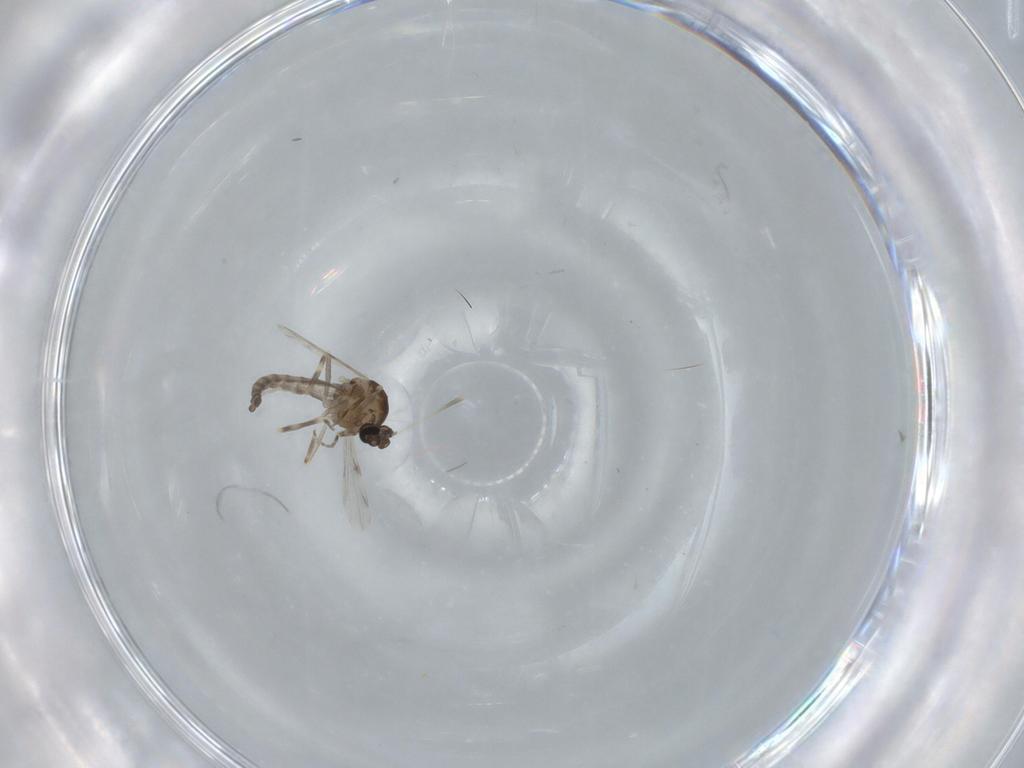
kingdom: Animalia
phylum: Arthropoda
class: Insecta
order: Diptera
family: Ceratopogonidae
